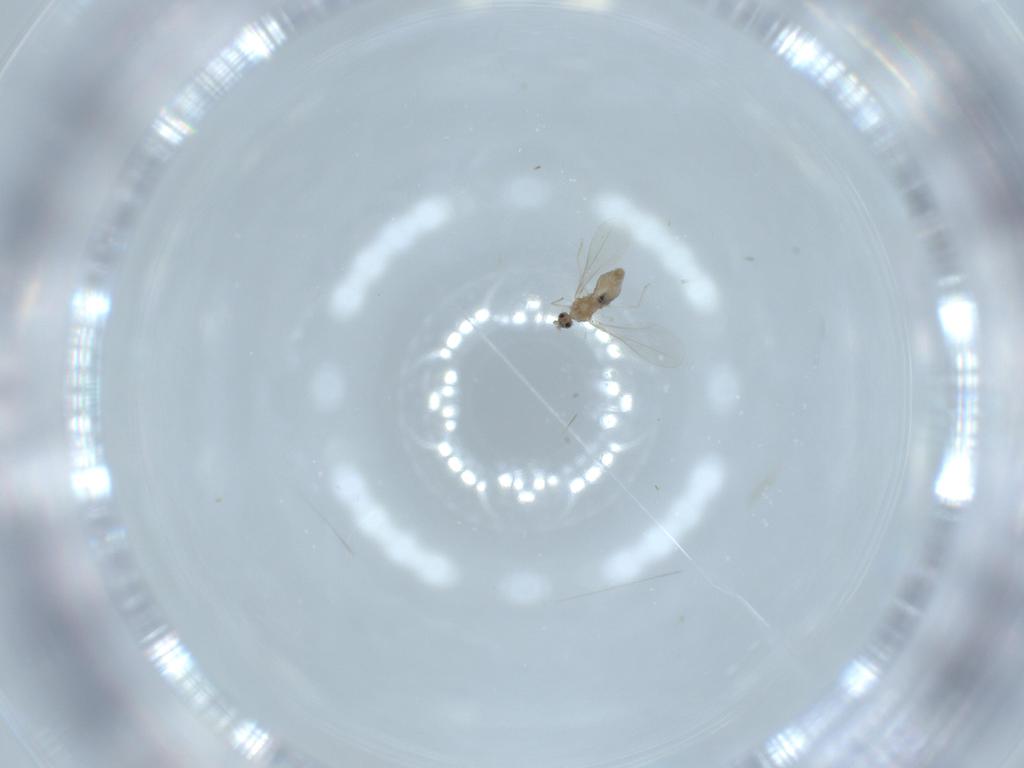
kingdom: Animalia
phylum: Arthropoda
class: Insecta
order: Diptera
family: Cecidomyiidae
